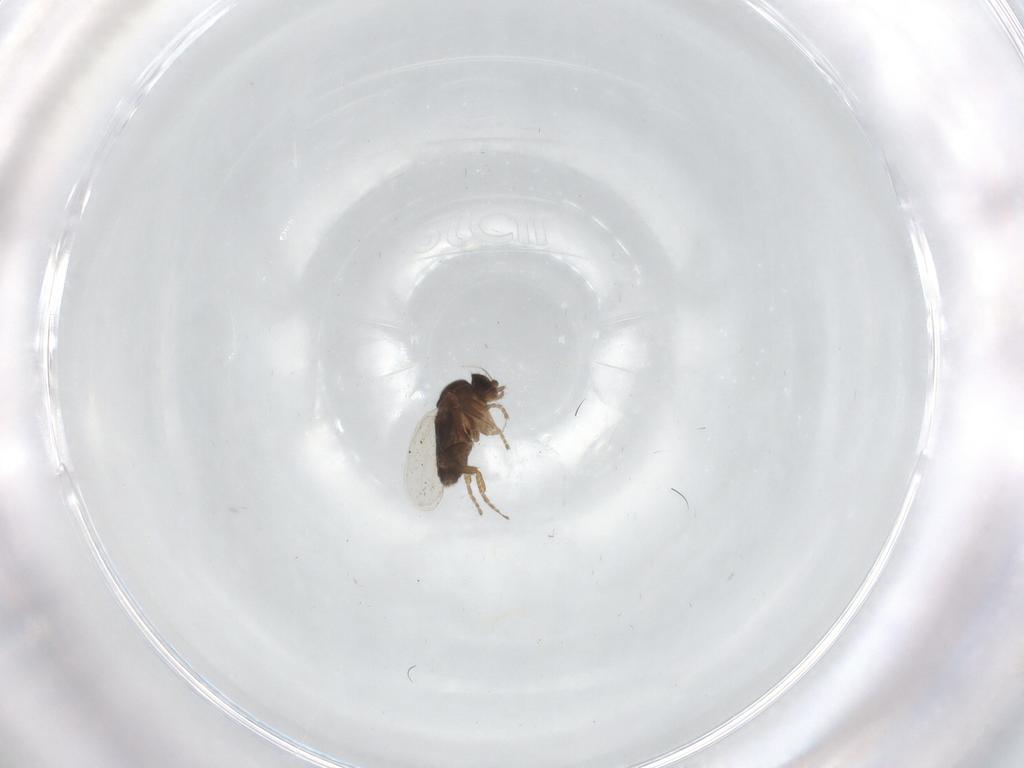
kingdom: Animalia
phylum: Arthropoda
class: Insecta
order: Diptera
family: Phoridae
